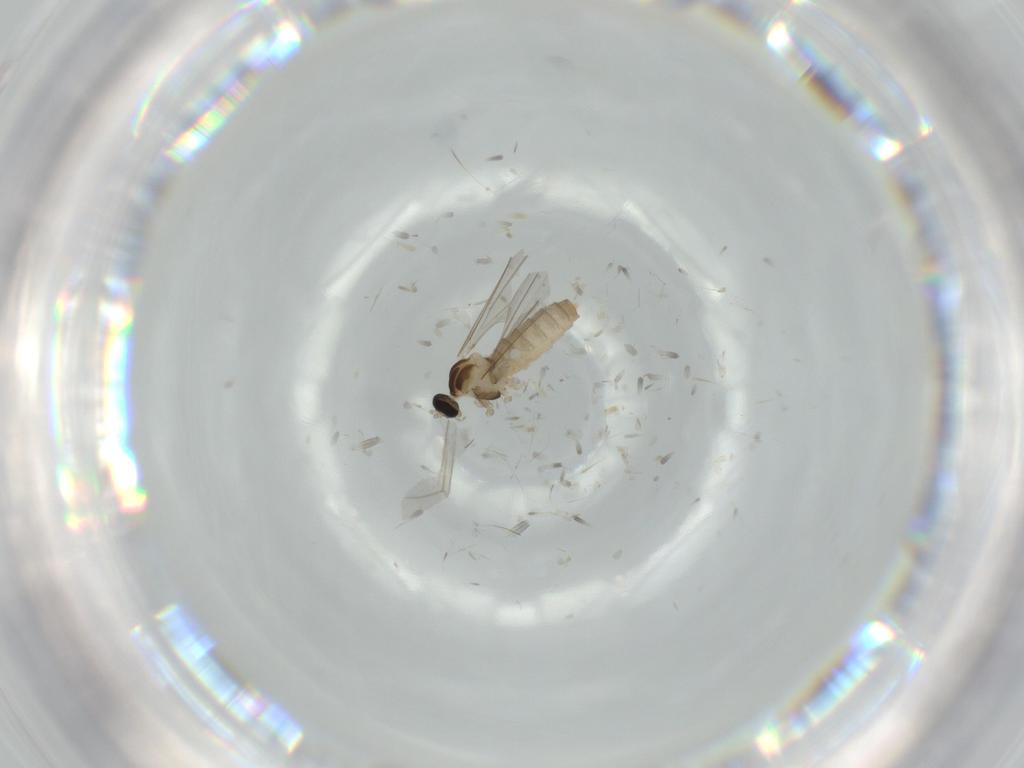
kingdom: Animalia
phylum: Arthropoda
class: Insecta
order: Diptera
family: Cecidomyiidae
